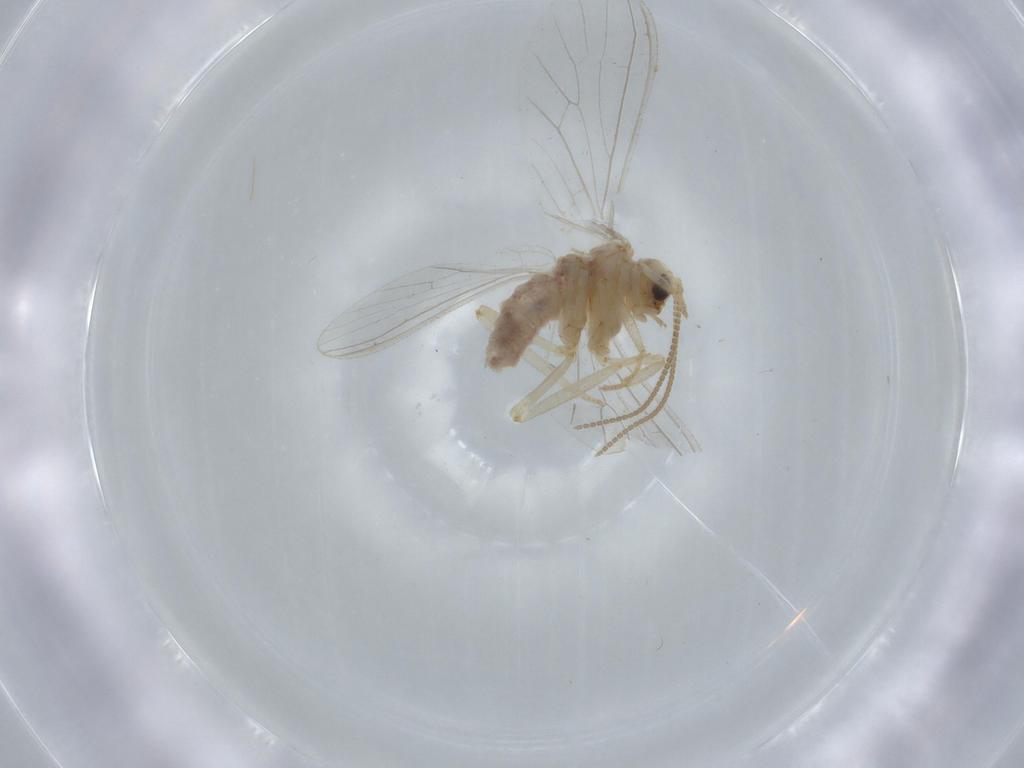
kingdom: Animalia
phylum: Arthropoda
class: Insecta
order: Neuroptera
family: Coniopterygidae
